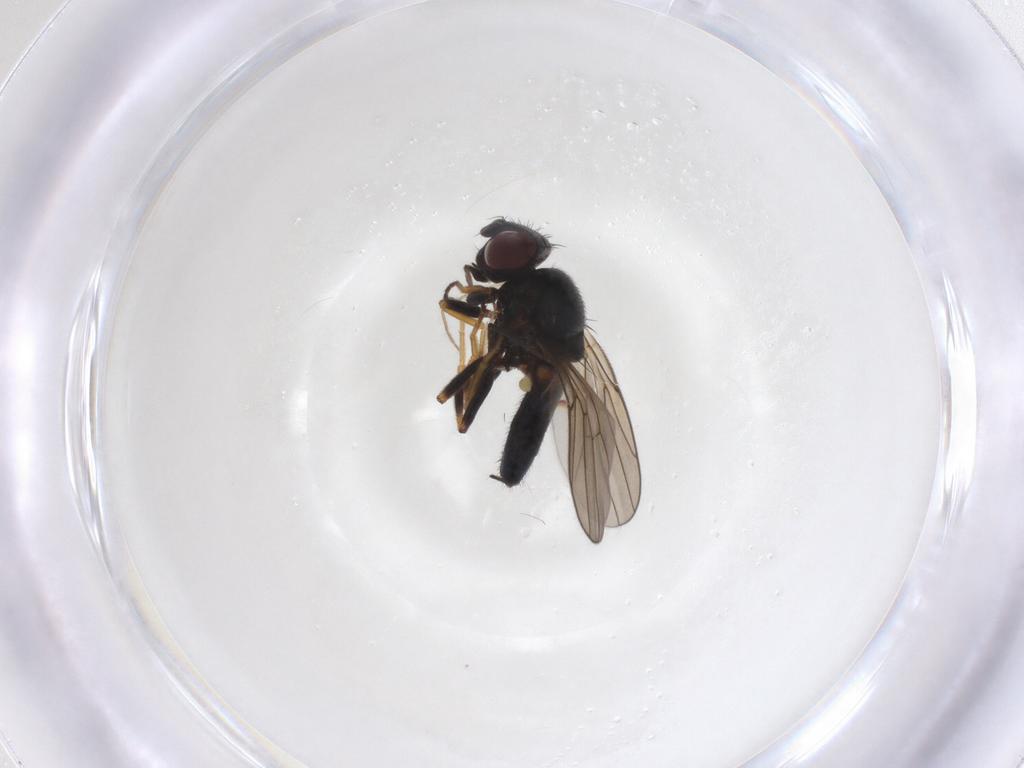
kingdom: Animalia
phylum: Arthropoda
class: Insecta
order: Diptera
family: Chloropidae
